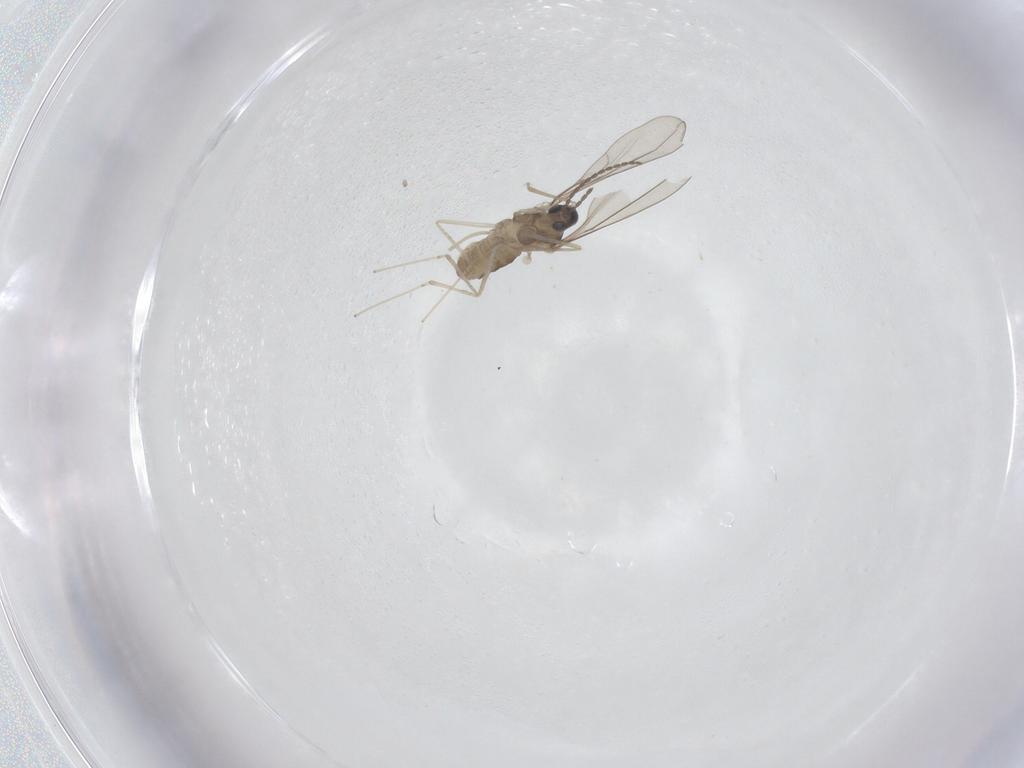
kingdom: Animalia
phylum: Arthropoda
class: Insecta
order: Diptera
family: Cecidomyiidae
